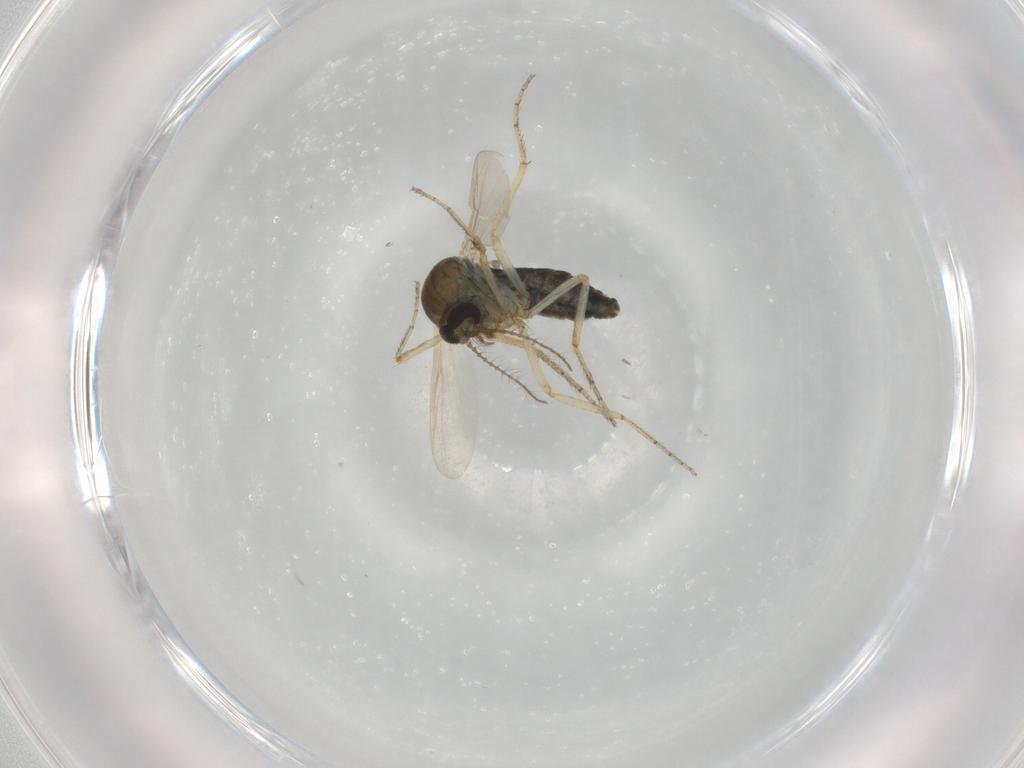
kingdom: Animalia
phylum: Arthropoda
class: Insecta
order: Diptera
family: Ceratopogonidae
